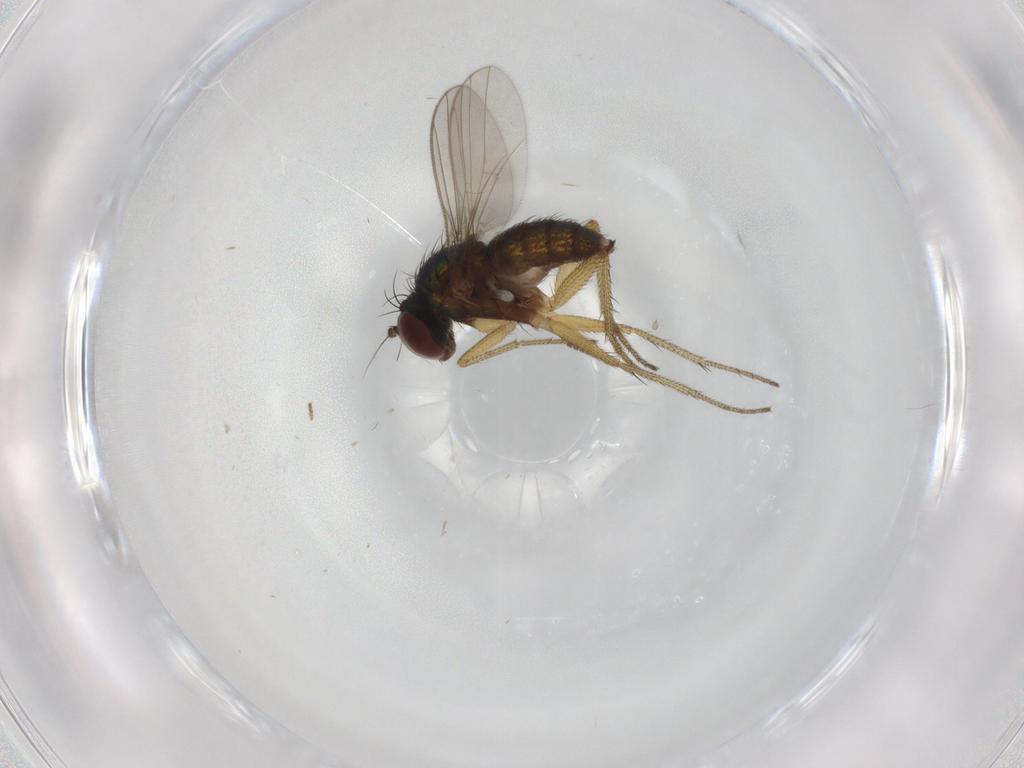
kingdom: Animalia
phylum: Arthropoda
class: Insecta
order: Diptera
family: Dolichopodidae
